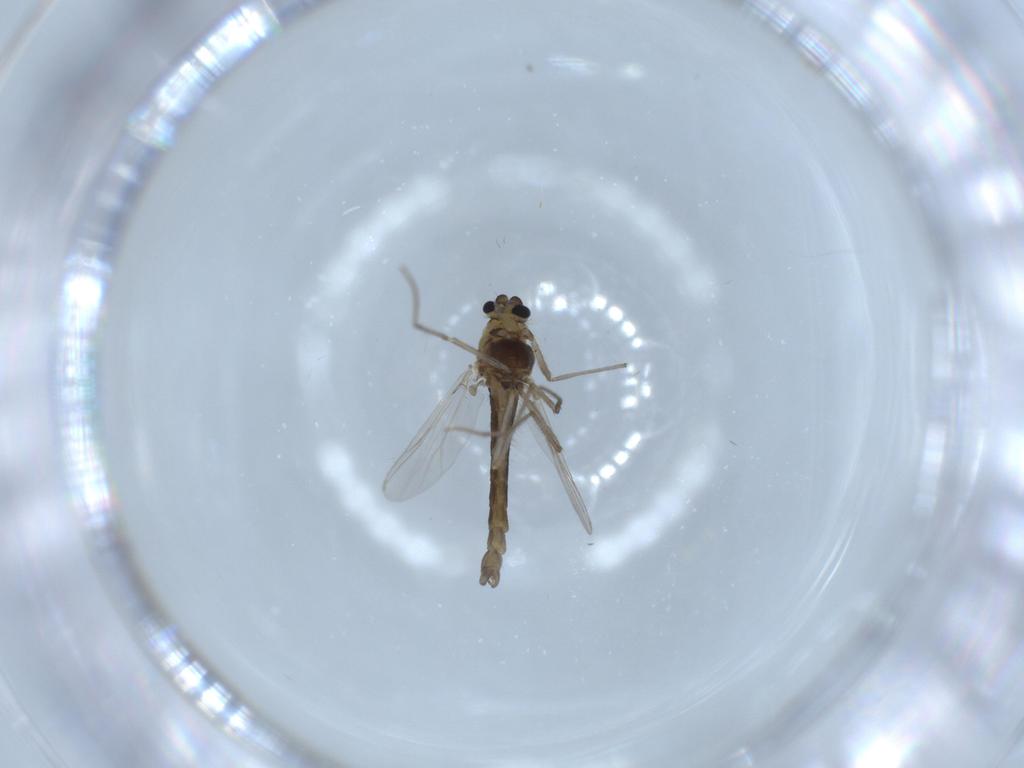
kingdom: Animalia
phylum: Arthropoda
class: Insecta
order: Diptera
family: Chironomidae
